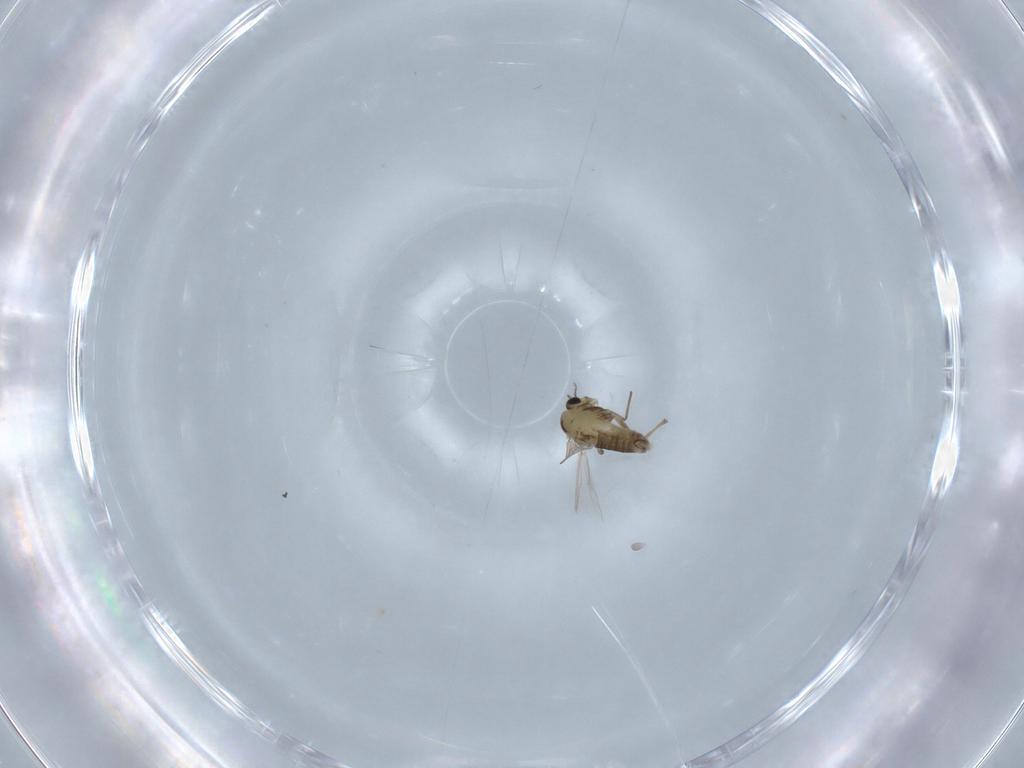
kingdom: Animalia
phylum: Arthropoda
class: Insecta
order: Diptera
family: Chironomidae
